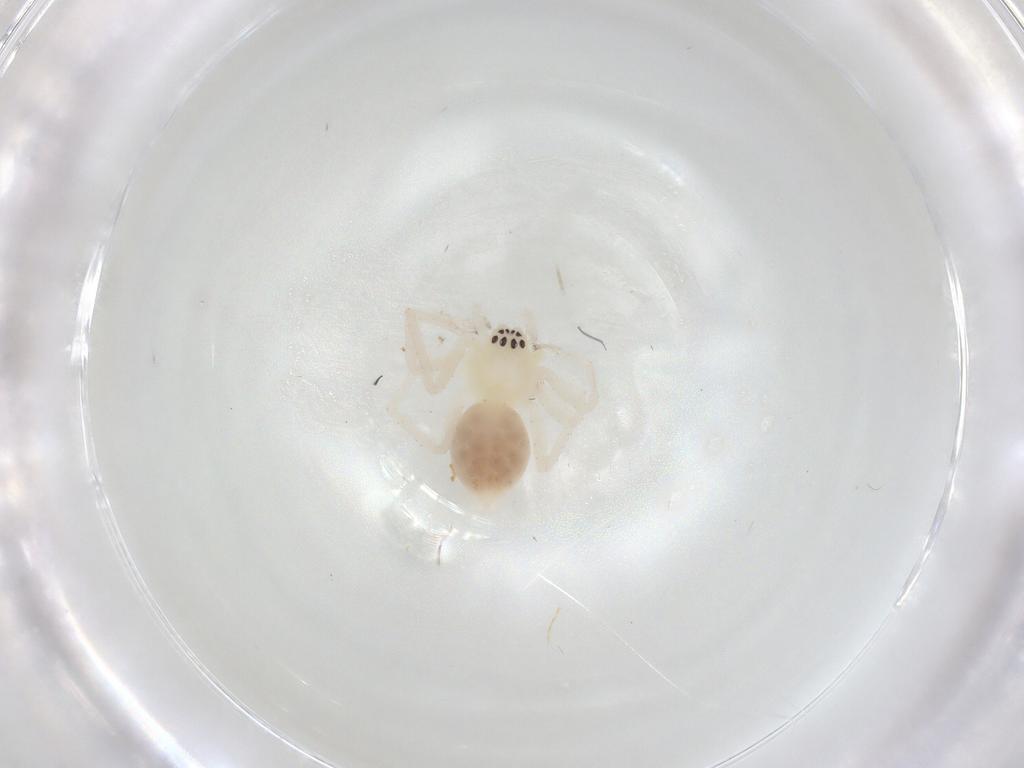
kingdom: Animalia
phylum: Arthropoda
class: Arachnida
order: Araneae
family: Anyphaenidae
